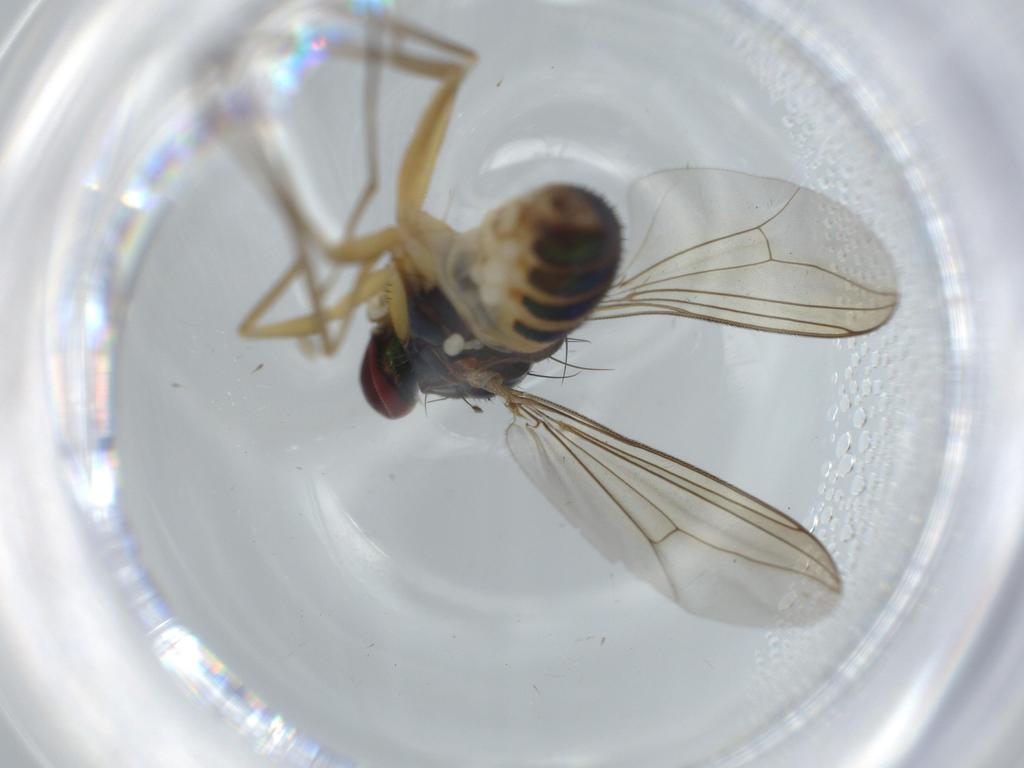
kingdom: Animalia
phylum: Arthropoda
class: Insecta
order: Diptera
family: Dolichopodidae
